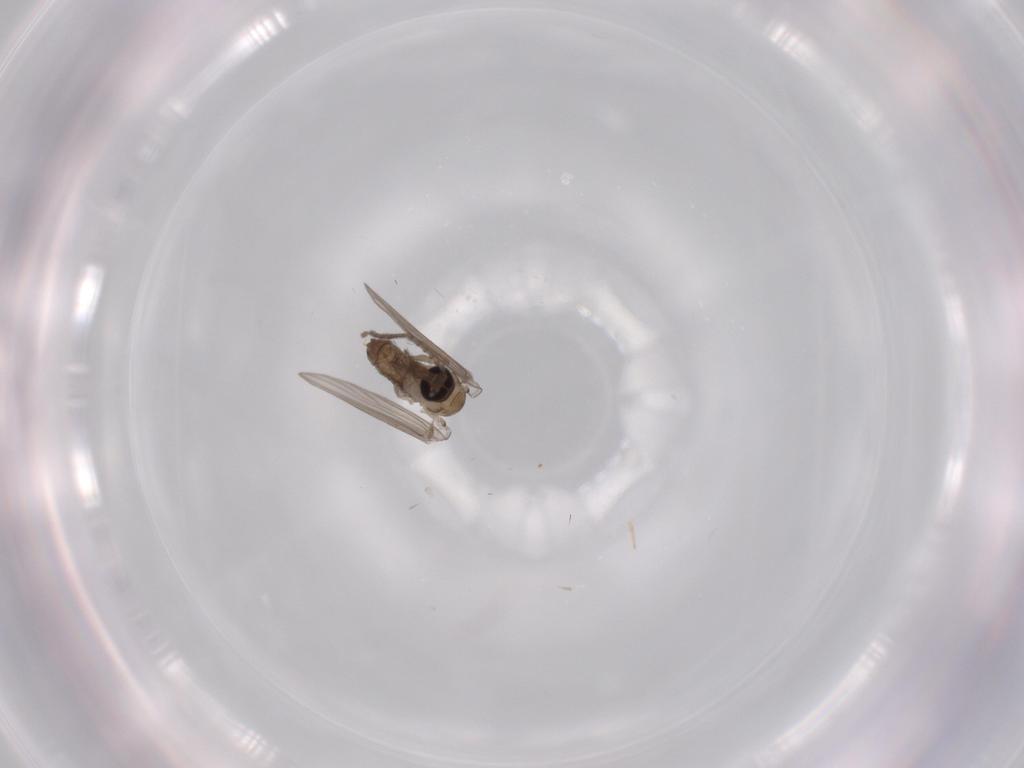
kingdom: Animalia
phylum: Arthropoda
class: Insecta
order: Diptera
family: Psychodidae
